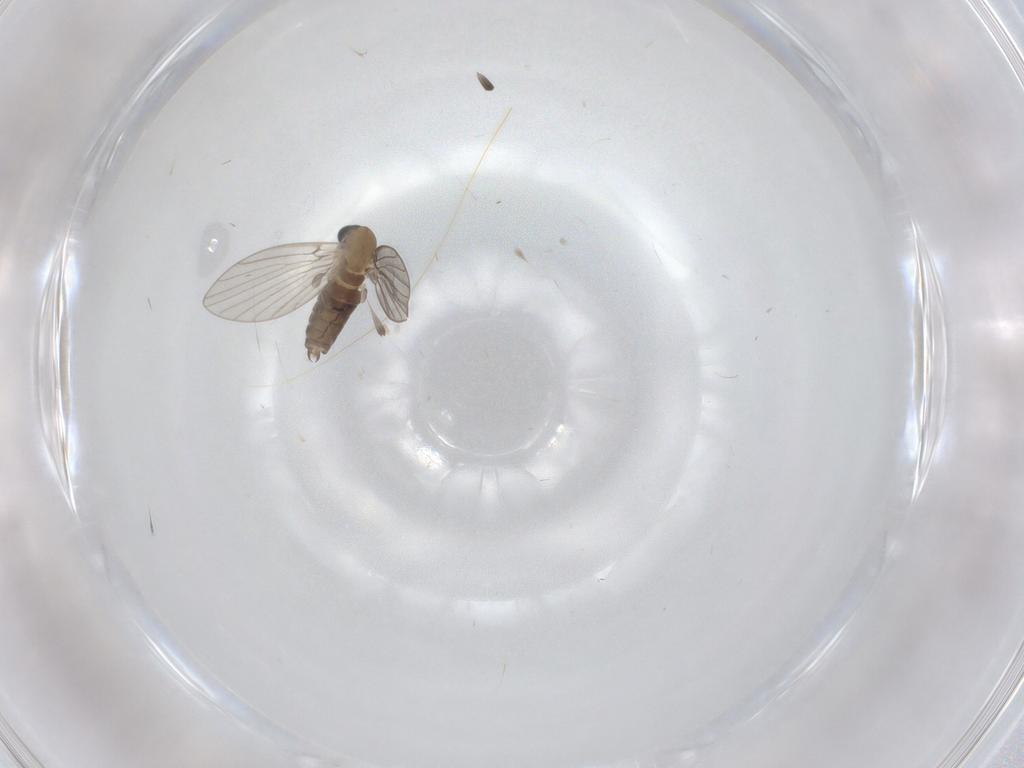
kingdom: Animalia
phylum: Arthropoda
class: Insecta
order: Diptera
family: Psychodidae
